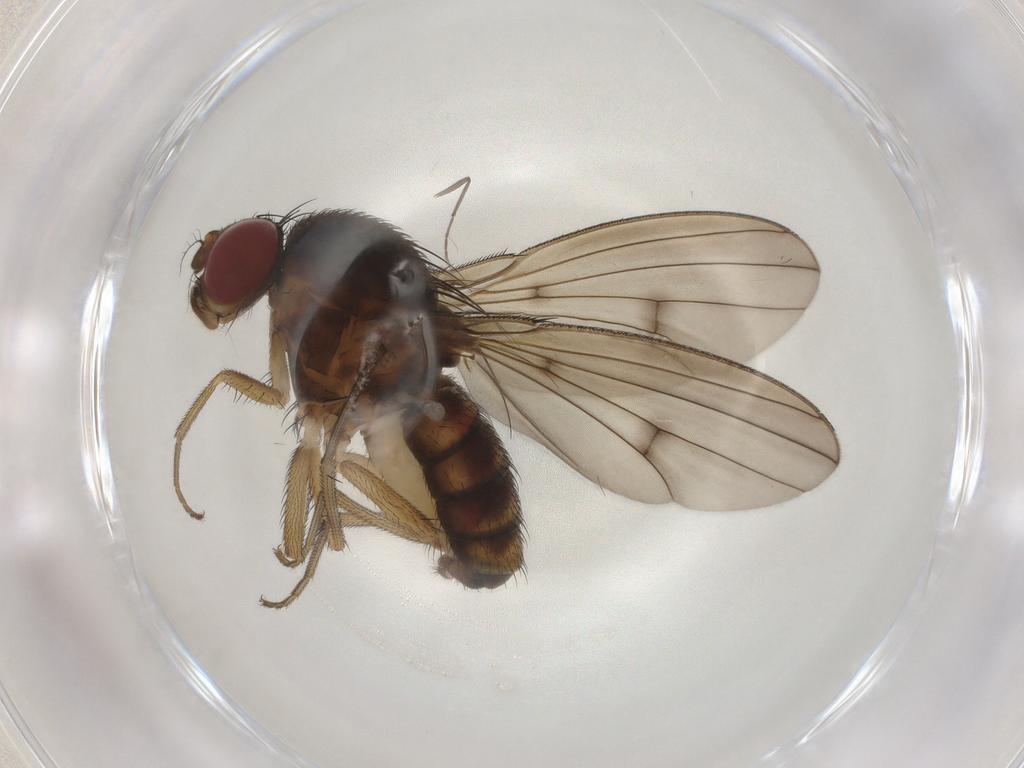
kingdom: Animalia
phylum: Arthropoda
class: Insecta
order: Diptera
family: Curtonotidae
